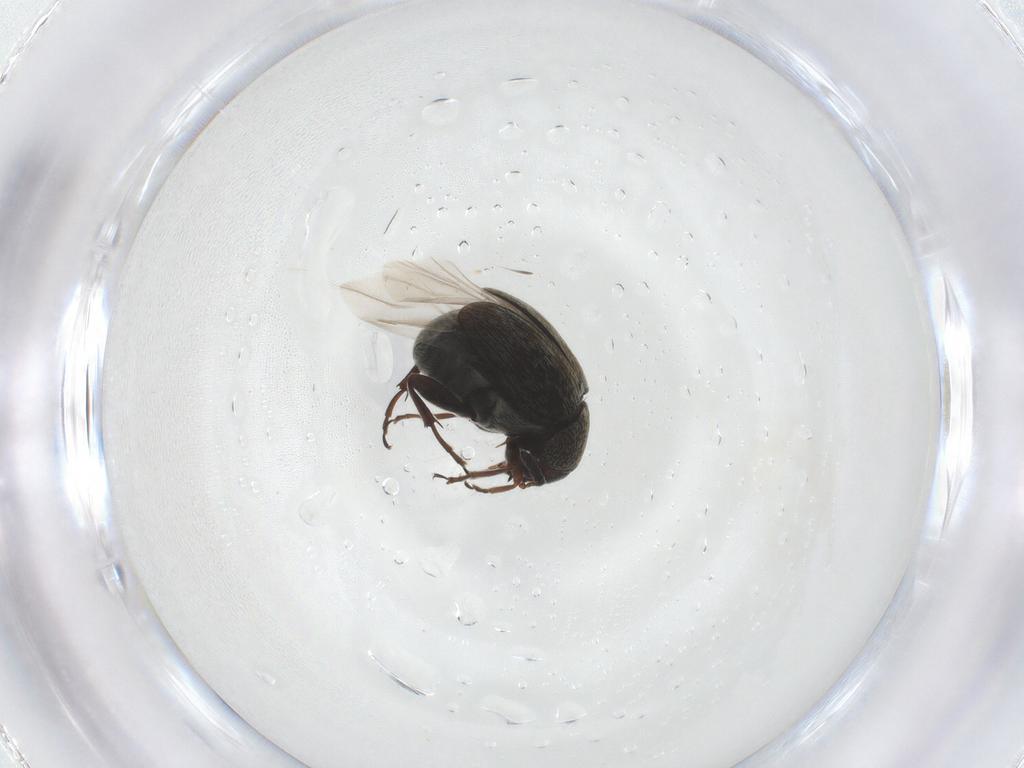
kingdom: Animalia
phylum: Arthropoda
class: Insecta
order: Coleoptera
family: Chrysomelidae
